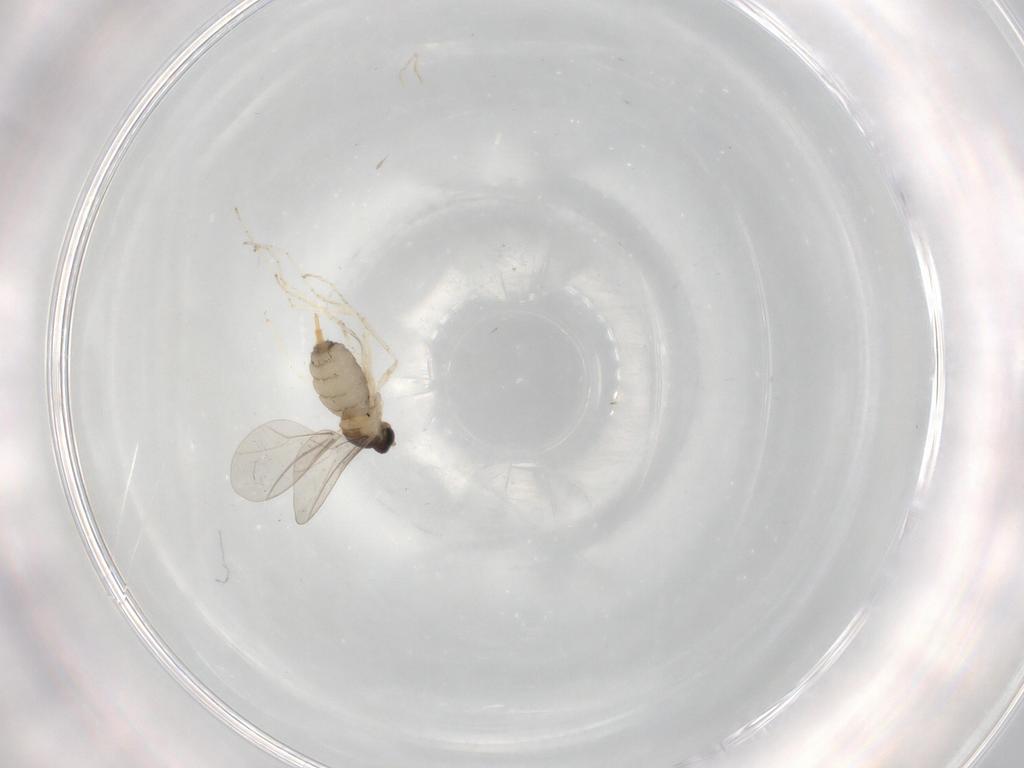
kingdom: Animalia
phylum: Arthropoda
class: Insecta
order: Diptera
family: Cecidomyiidae
